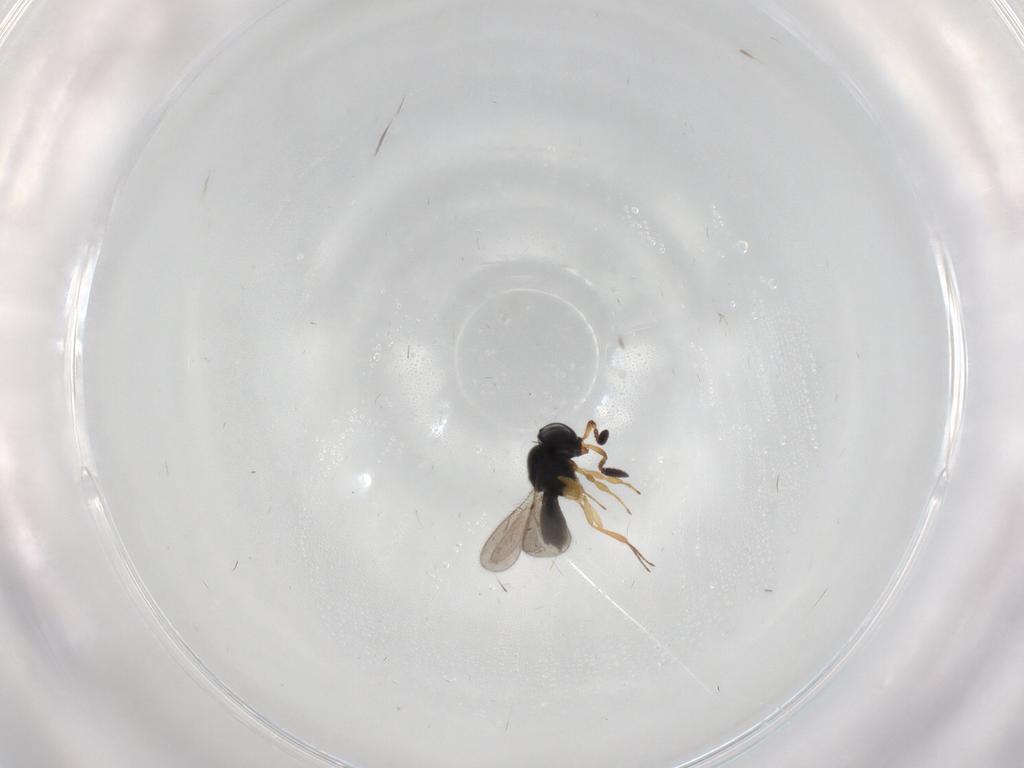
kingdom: Animalia
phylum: Arthropoda
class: Insecta
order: Hymenoptera
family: Scelionidae
